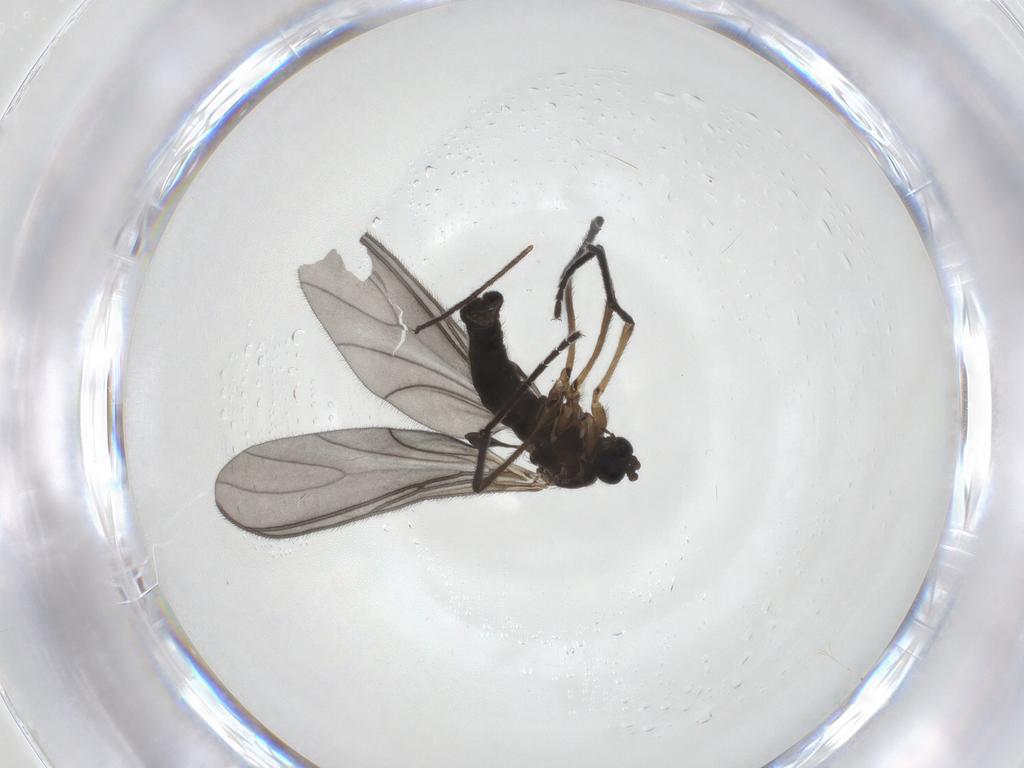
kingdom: Animalia
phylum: Arthropoda
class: Insecta
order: Diptera
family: Chironomidae
